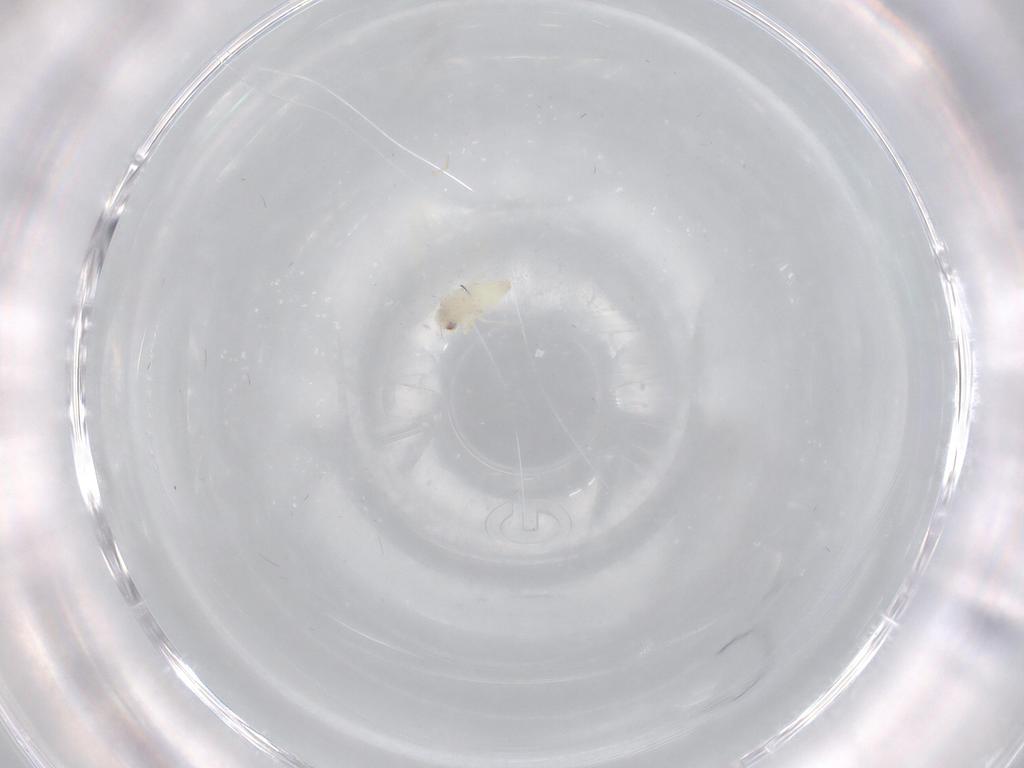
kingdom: Animalia
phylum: Arthropoda
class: Insecta
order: Hemiptera
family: Aleyrodidae
